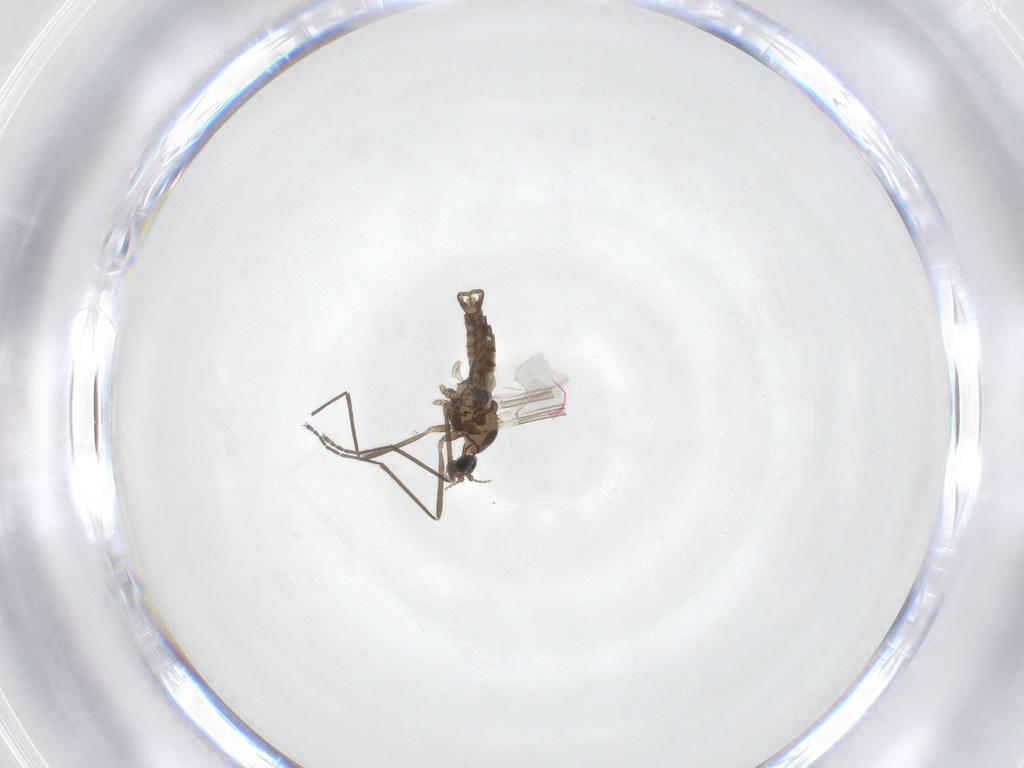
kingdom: Animalia
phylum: Arthropoda
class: Insecta
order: Diptera
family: Cecidomyiidae
